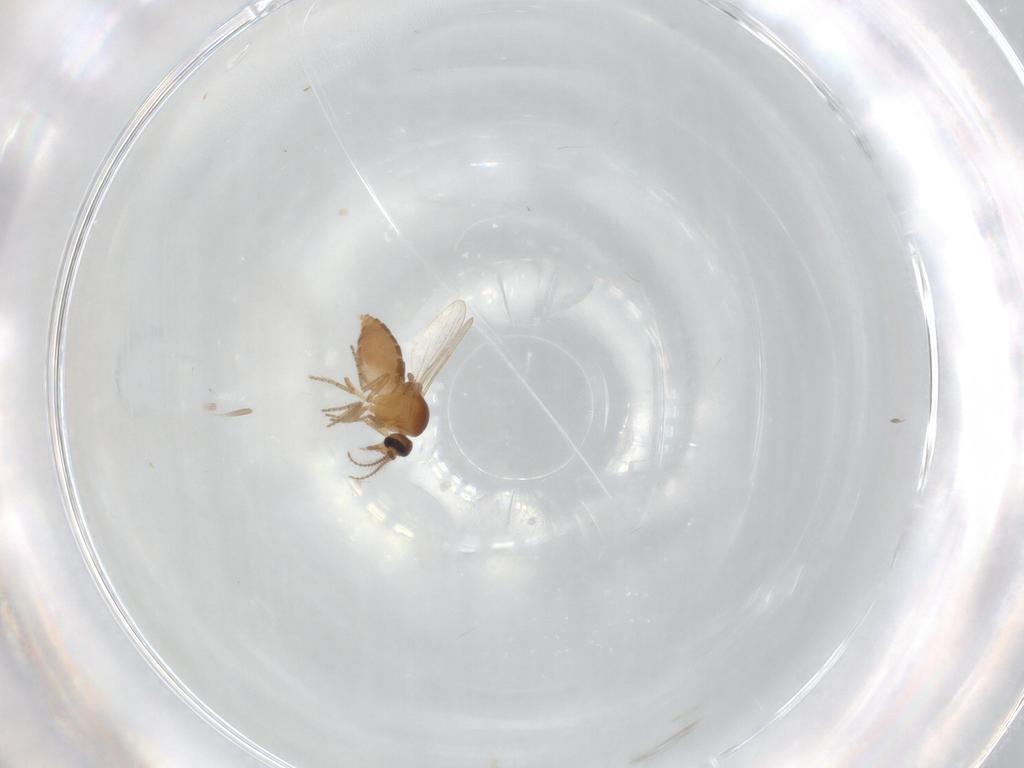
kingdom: Animalia
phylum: Arthropoda
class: Insecta
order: Diptera
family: Ceratopogonidae
